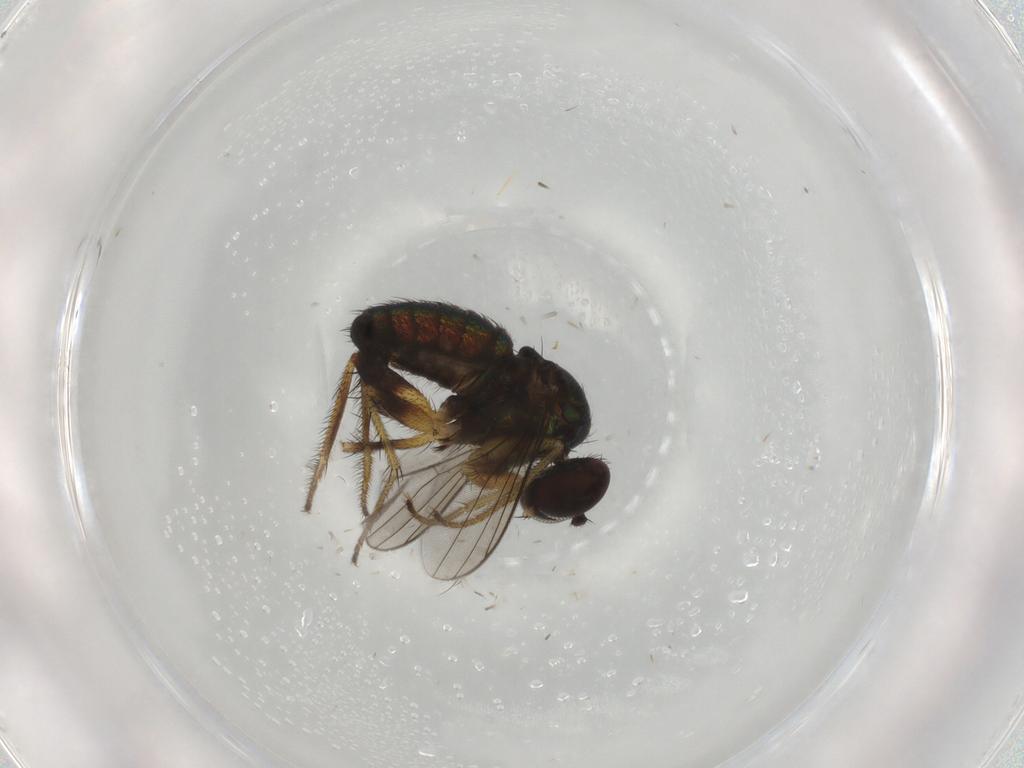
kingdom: Animalia
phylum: Arthropoda
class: Insecta
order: Diptera
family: Dolichopodidae
